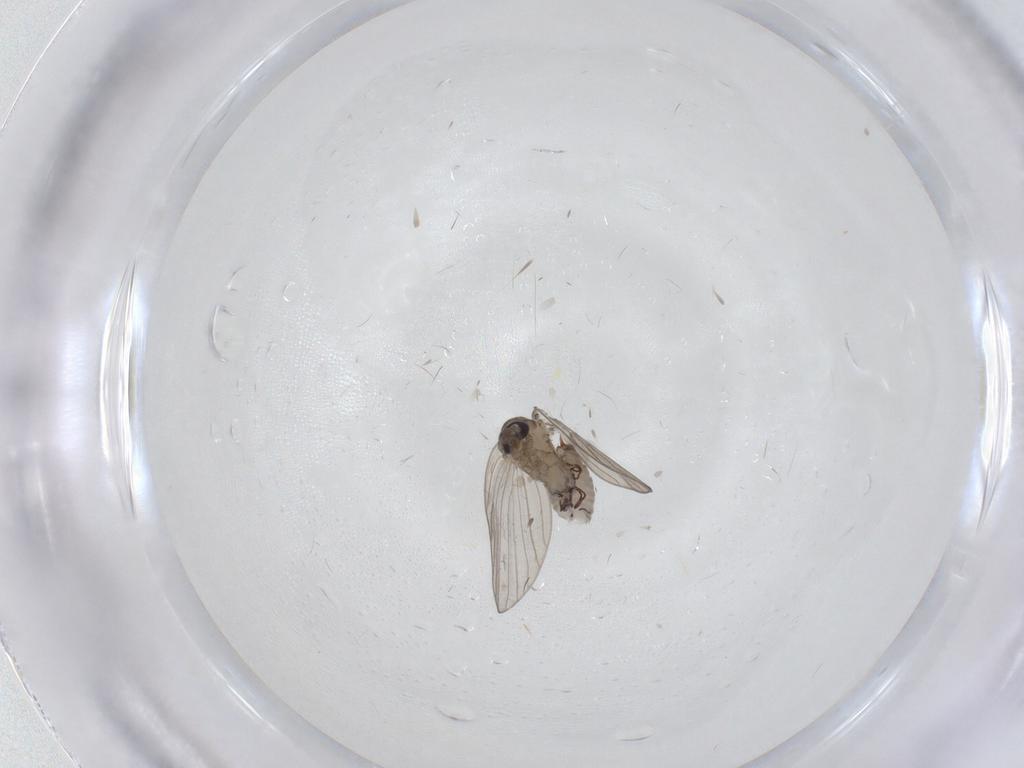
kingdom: Animalia
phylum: Arthropoda
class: Insecta
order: Diptera
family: Psychodidae
